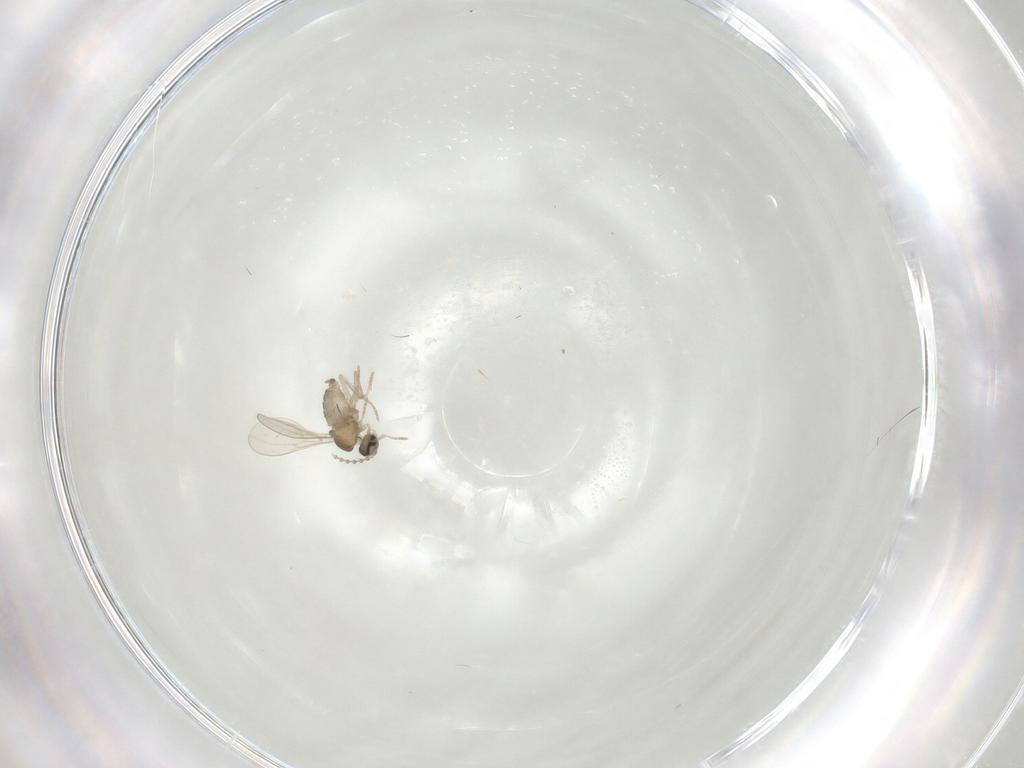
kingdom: Animalia
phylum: Arthropoda
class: Insecta
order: Diptera
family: Cecidomyiidae
